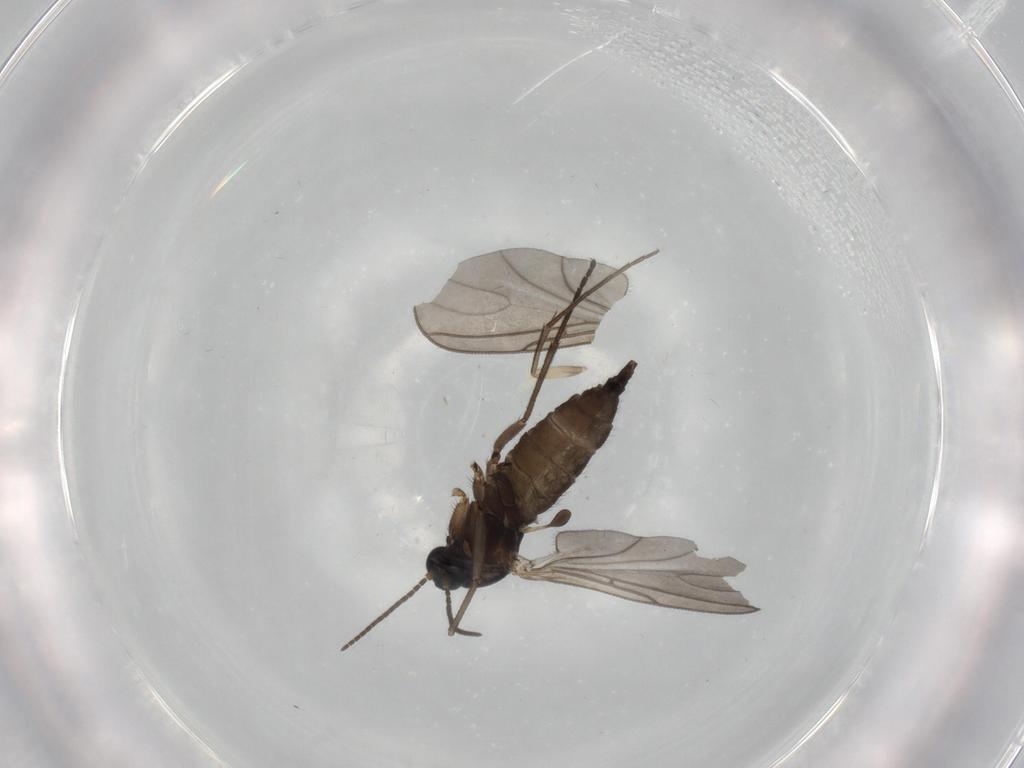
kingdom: Animalia
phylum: Arthropoda
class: Insecta
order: Diptera
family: Sciaridae
